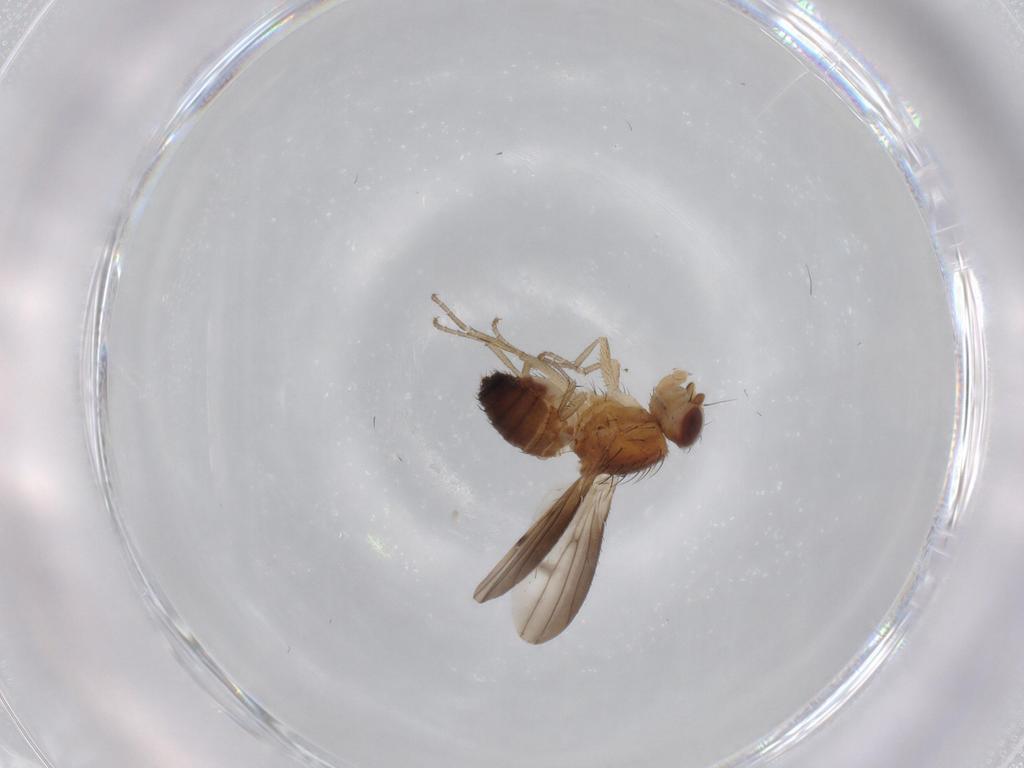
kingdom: Animalia
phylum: Arthropoda
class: Insecta
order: Diptera
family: Heleomyzidae
